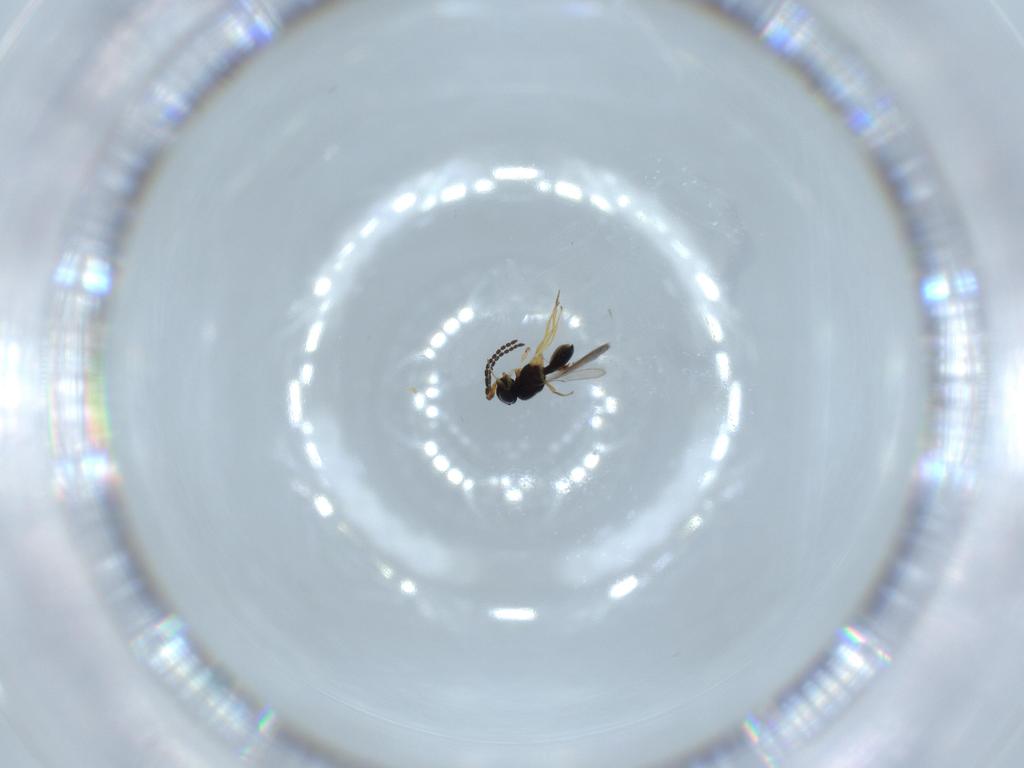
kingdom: Animalia
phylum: Arthropoda
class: Insecta
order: Hymenoptera
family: Scelionidae
